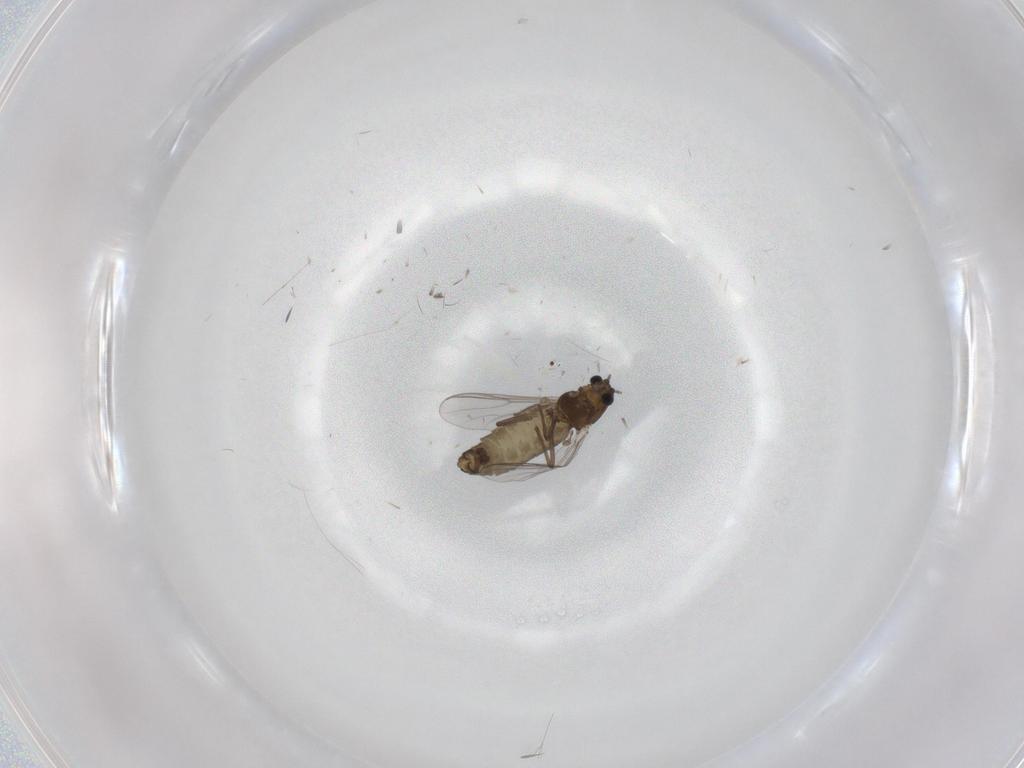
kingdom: Animalia
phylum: Arthropoda
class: Insecta
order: Diptera
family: Chironomidae
